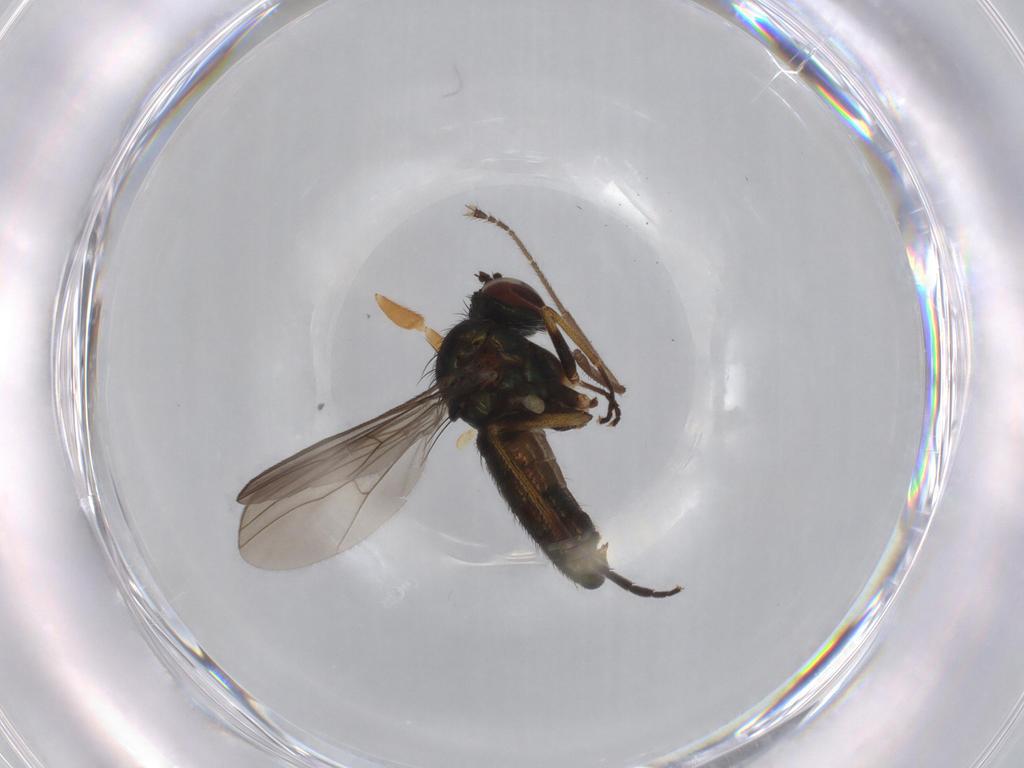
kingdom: Animalia
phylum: Arthropoda
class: Insecta
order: Diptera
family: Dolichopodidae
